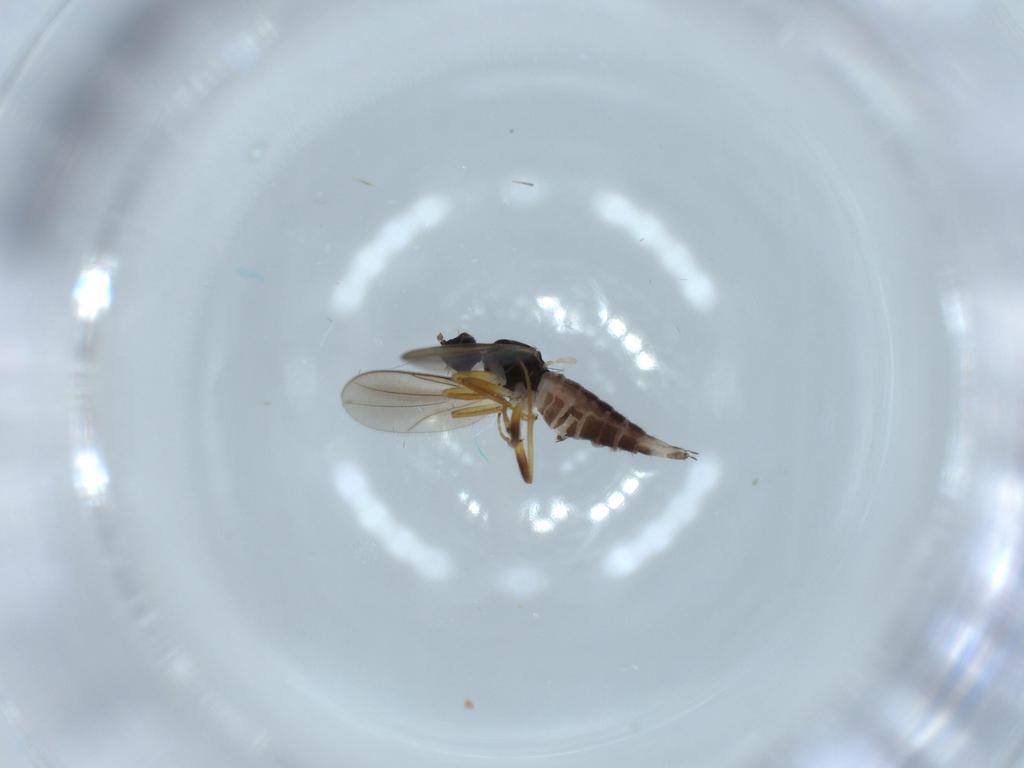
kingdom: Animalia
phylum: Arthropoda
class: Insecta
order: Diptera
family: Hybotidae
